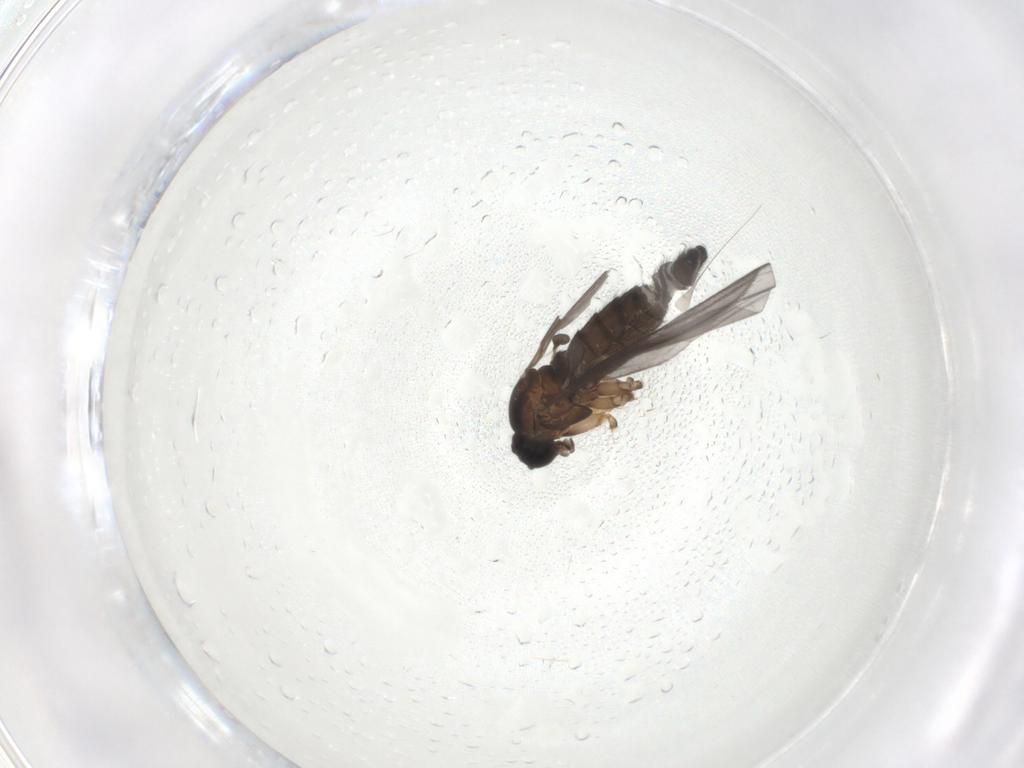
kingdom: Animalia
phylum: Arthropoda
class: Insecta
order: Diptera
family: Sciaridae
